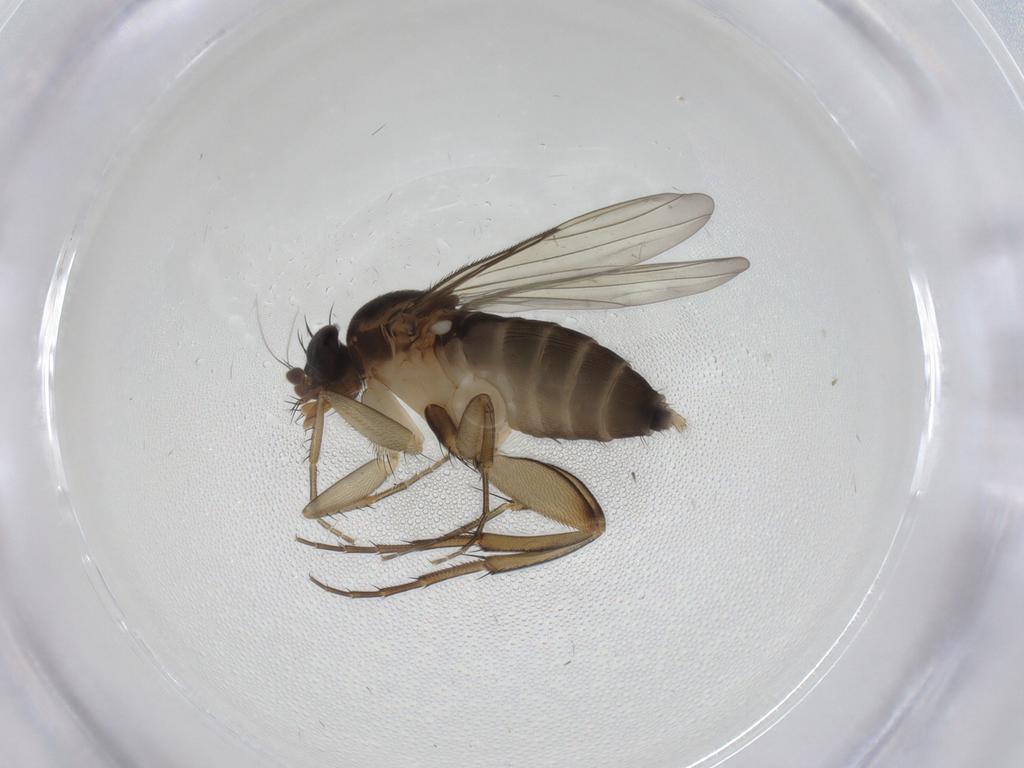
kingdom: Animalia
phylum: Arthropoda
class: Insecta
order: Diptera
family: Phoridae
